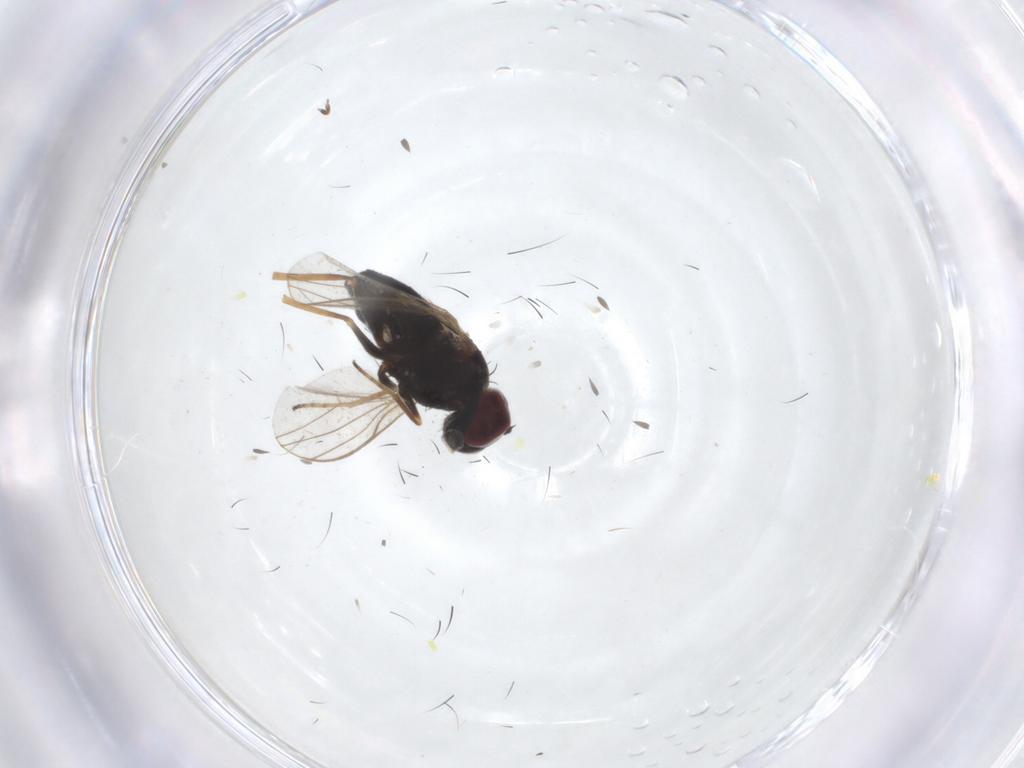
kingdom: Animalia
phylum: Arthropoda
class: Insecta
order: Diptera
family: Dolichopodidae
